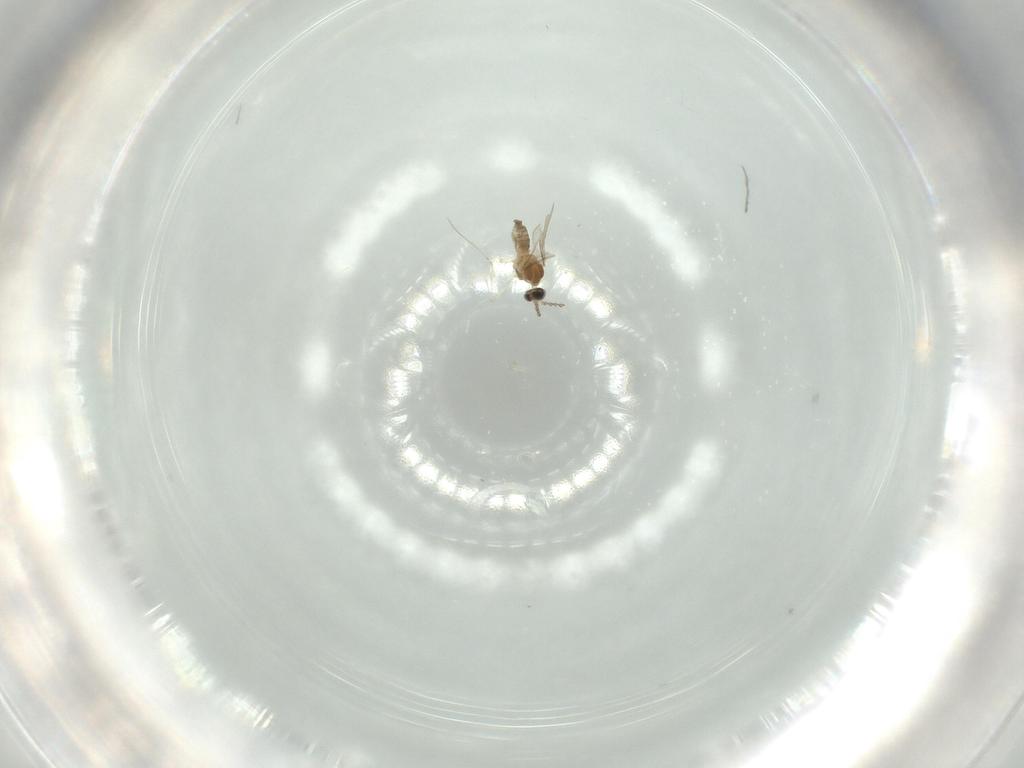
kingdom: Animalia
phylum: Arthropoda
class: Insecta
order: Diptera
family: Cecidomyiidae
